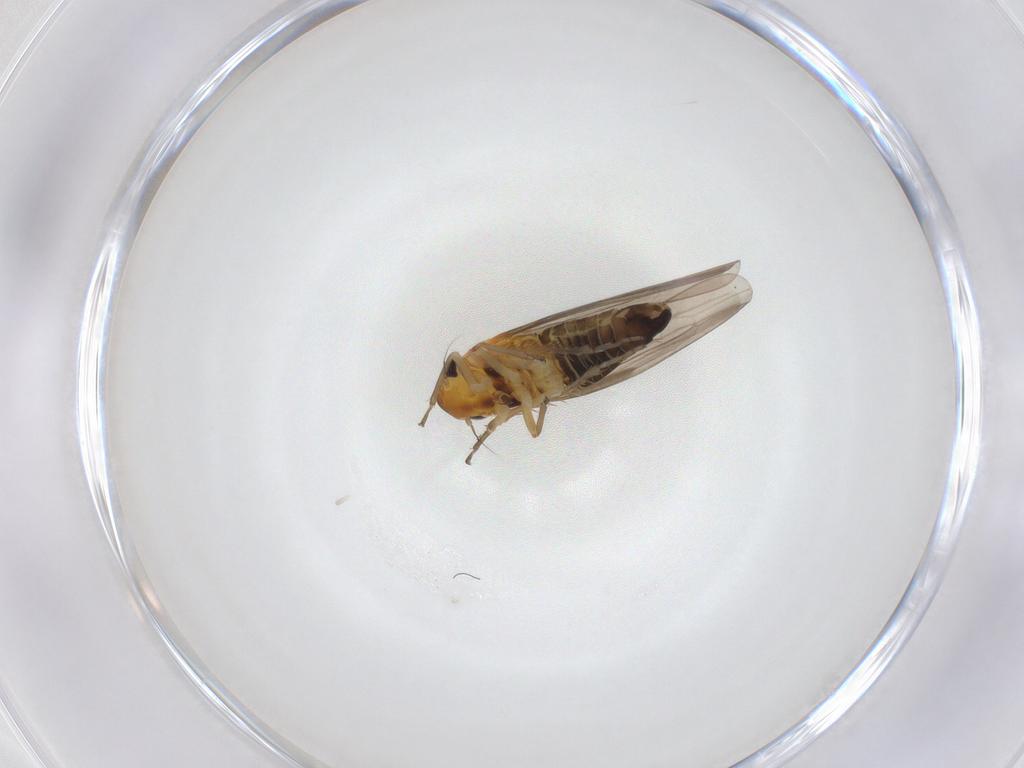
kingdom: Animalia
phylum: Arthropoda
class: Insecta
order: Hemiptera
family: Cicadellidae
